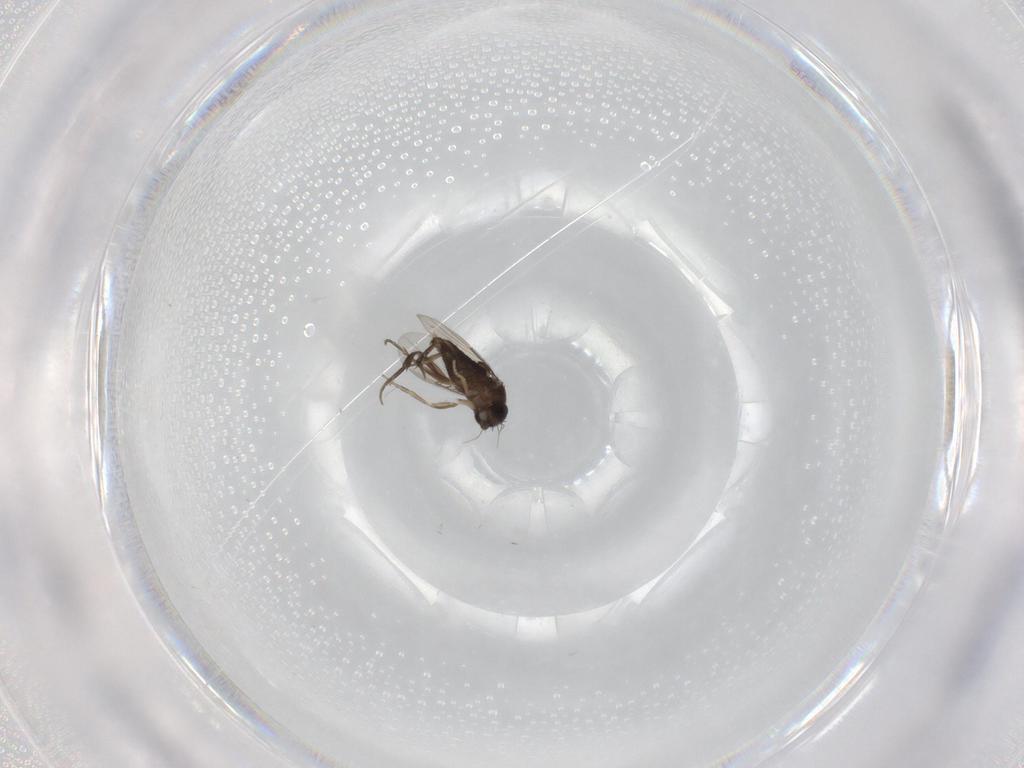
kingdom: Animalia
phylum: Arthropoda
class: Insecta
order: Diptera
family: Phoridae
